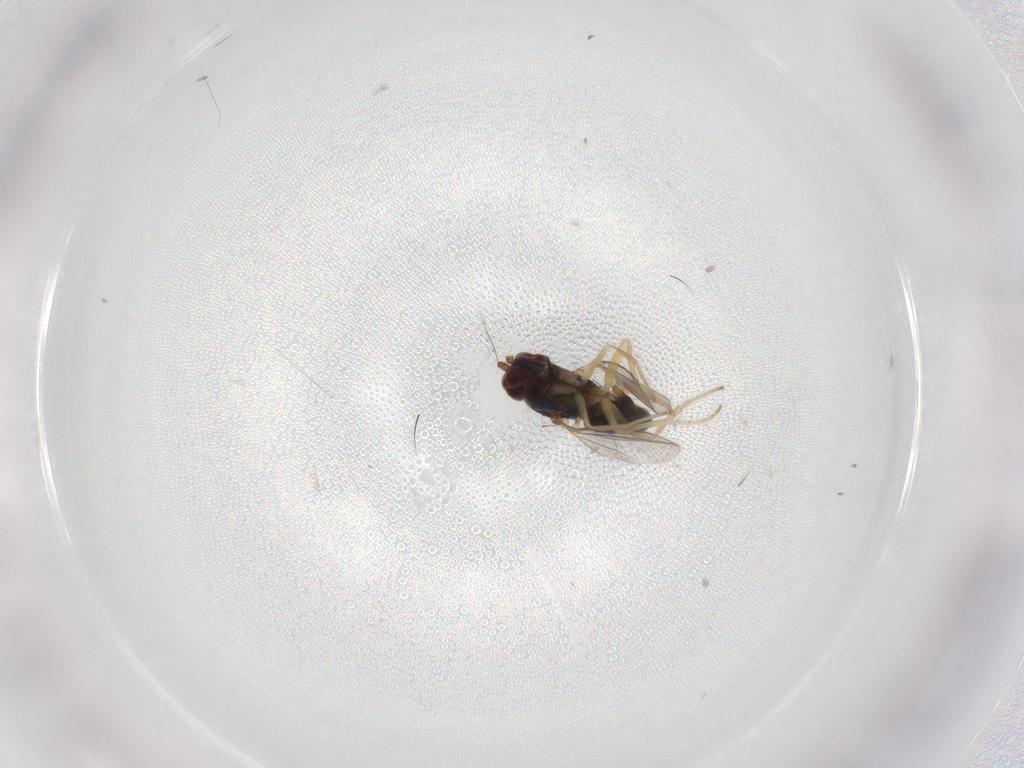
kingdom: Animalia
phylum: Arthropoda
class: Insecta
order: Diptera
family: Dolichopodidae
